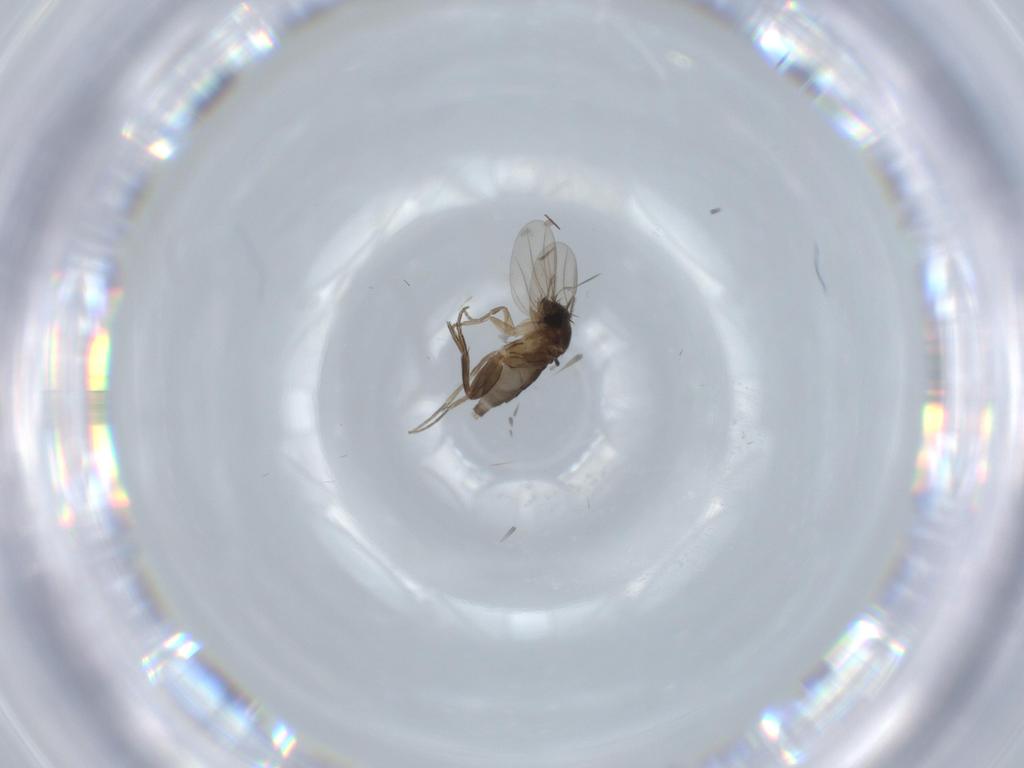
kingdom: Animalia
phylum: Arthropoda
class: Insecta
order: Diptera
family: Phoridae
